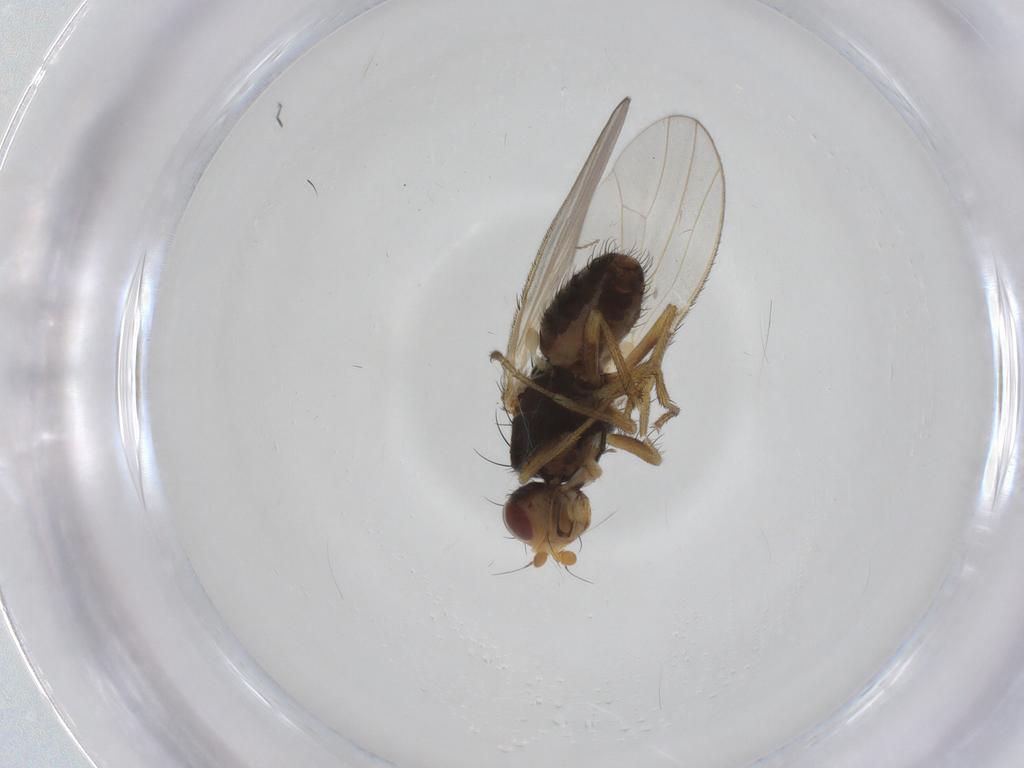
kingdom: Animalia
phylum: Arthropoda
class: Insecta
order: Diptera
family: Heleomyzidae
